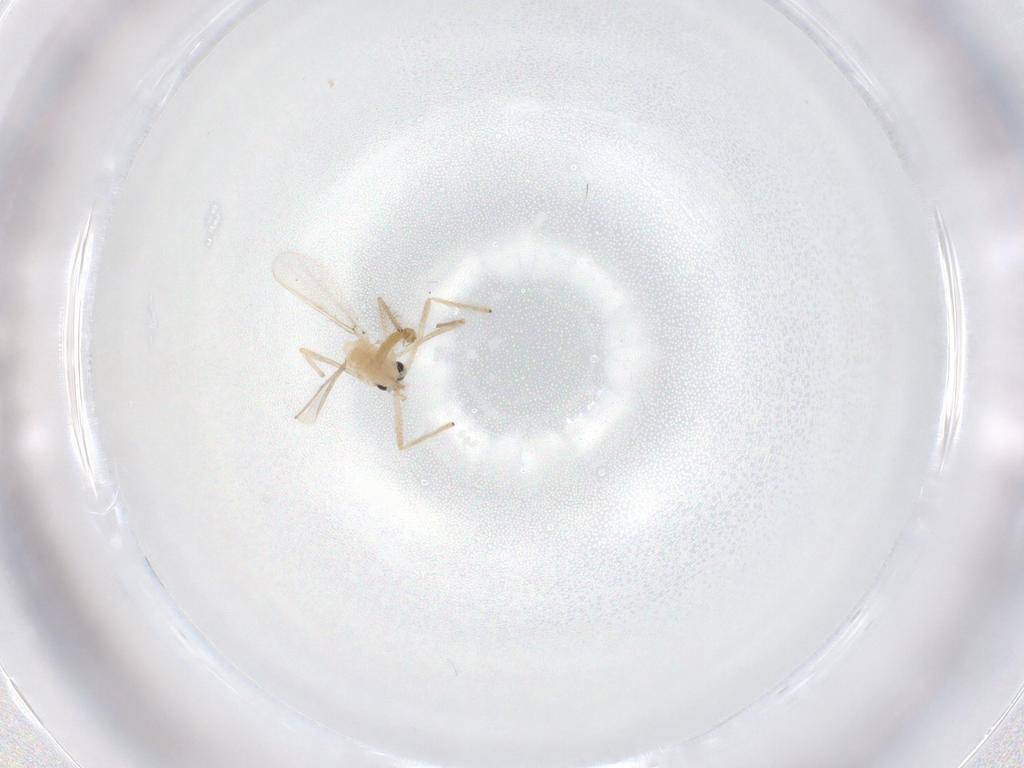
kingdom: Animalia
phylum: Arthropoda
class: Insecta
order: Diptera
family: Chironomidae
